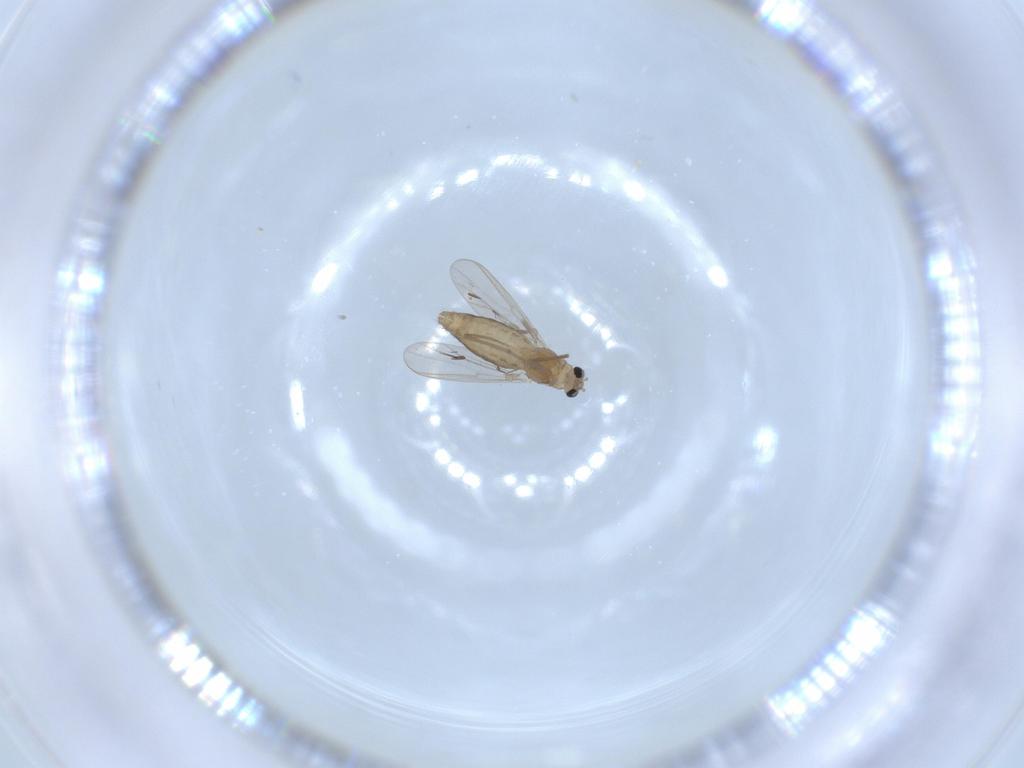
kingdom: Animalia
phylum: Arthropoda
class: Insecta
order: Diptera
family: Chironomidae
